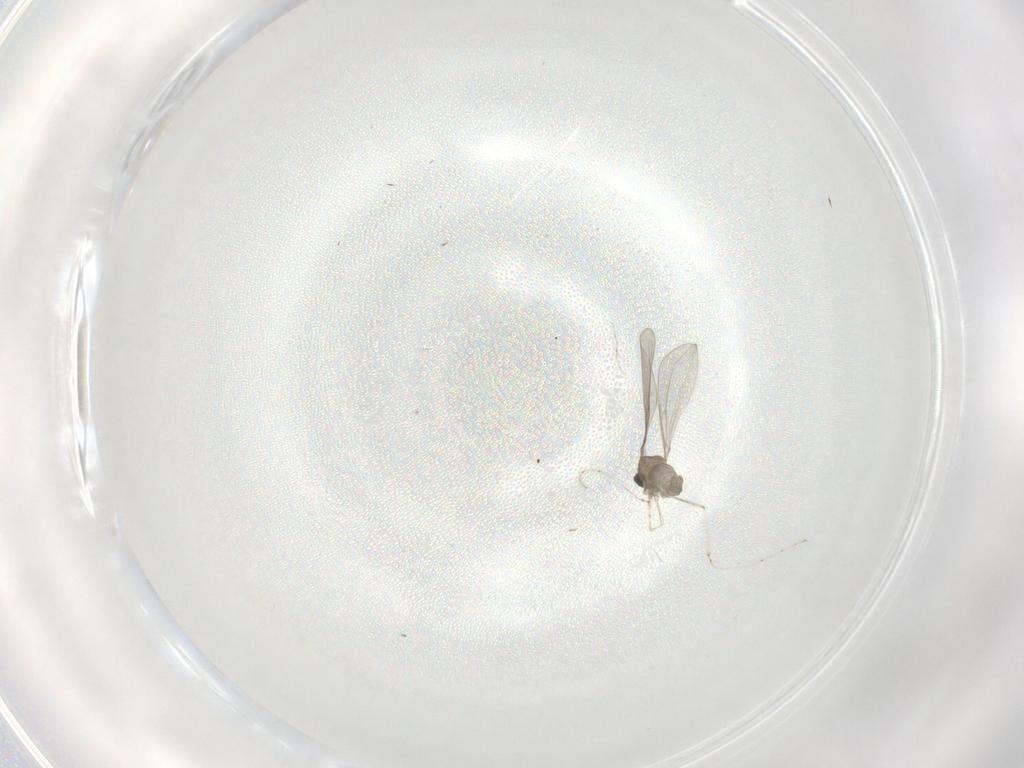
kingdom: Animalia
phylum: Arthropoda
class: Insecta
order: Diptera
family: Cecidomyiidae
